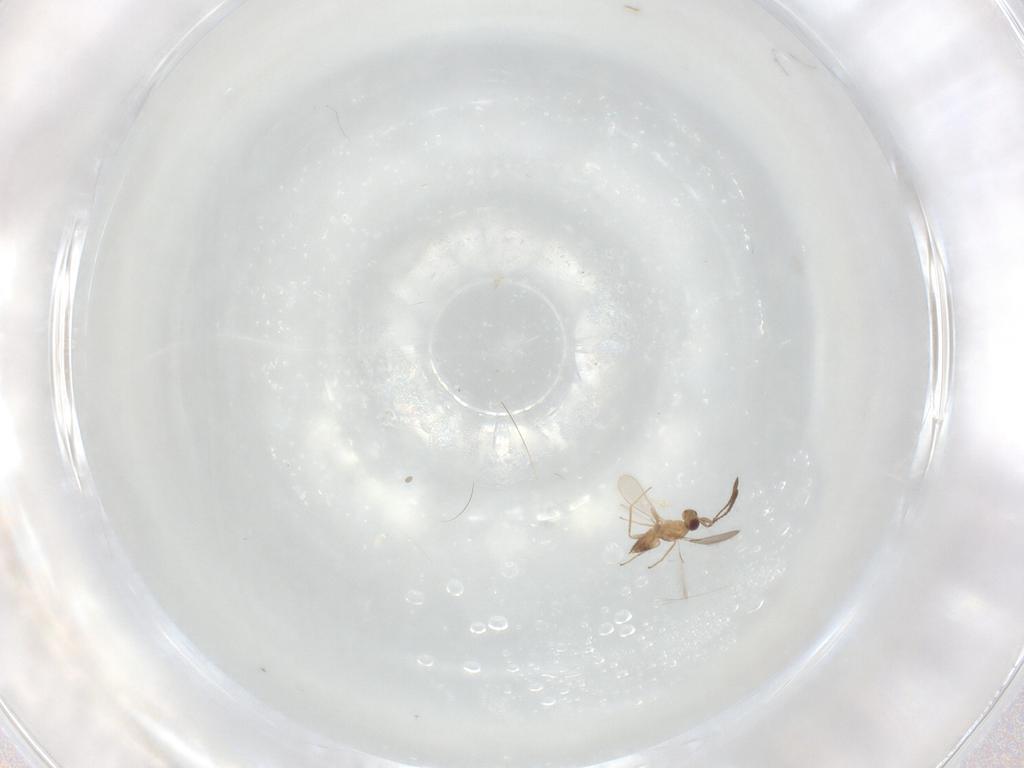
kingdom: Animalia
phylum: Arthropoda
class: Insecta
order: Hymenoptera
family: Mymaridae
